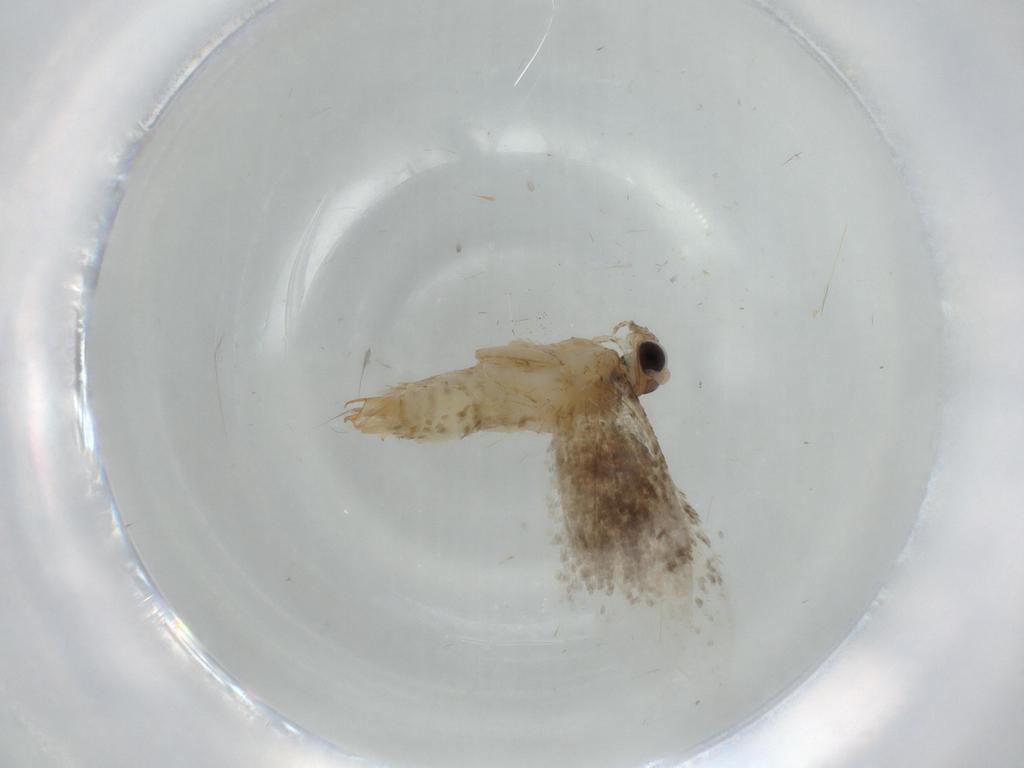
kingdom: Animalia
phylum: Arthropoda
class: Insecta
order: Lepidoptera
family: Tineidae
